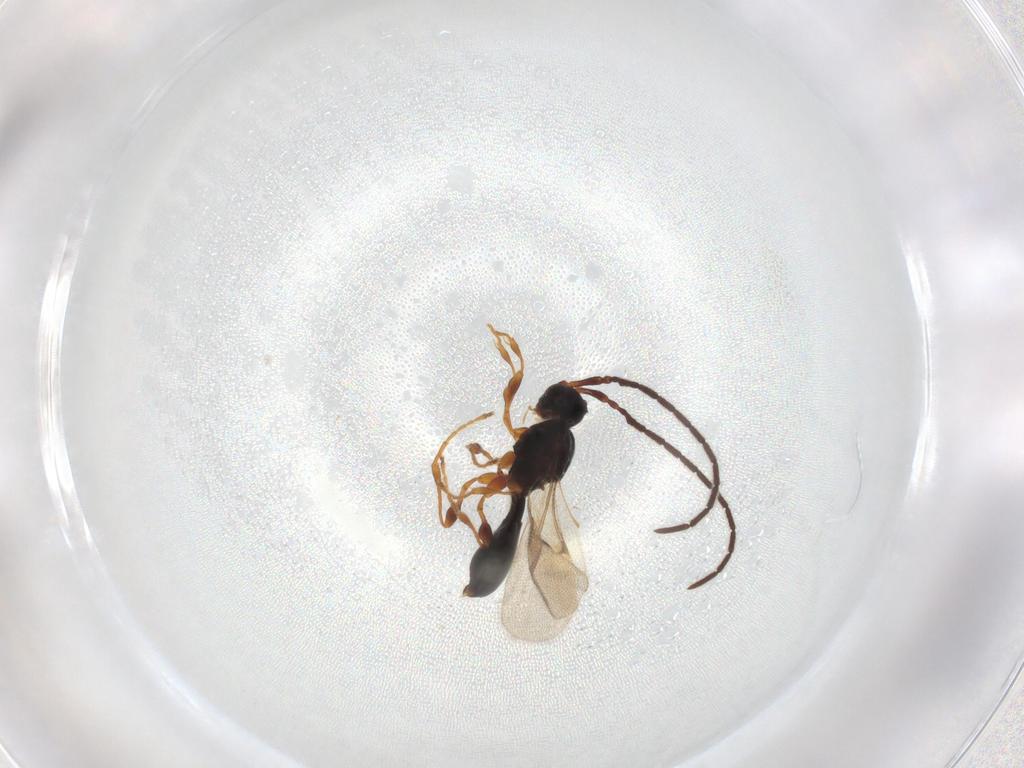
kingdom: Animalia
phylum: Arthropoda
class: Insecta
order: Hymenoptera
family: Diapriidae
